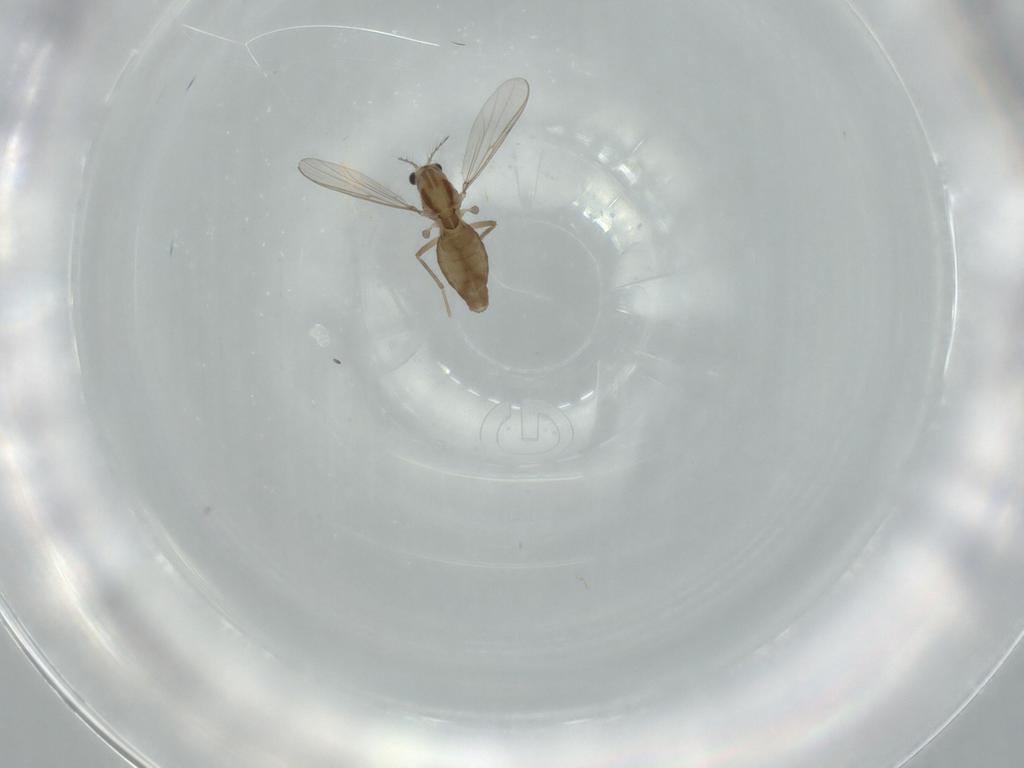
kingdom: Animalia
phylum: Arthropoda
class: Insecta
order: Diptera
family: Chironomidae
